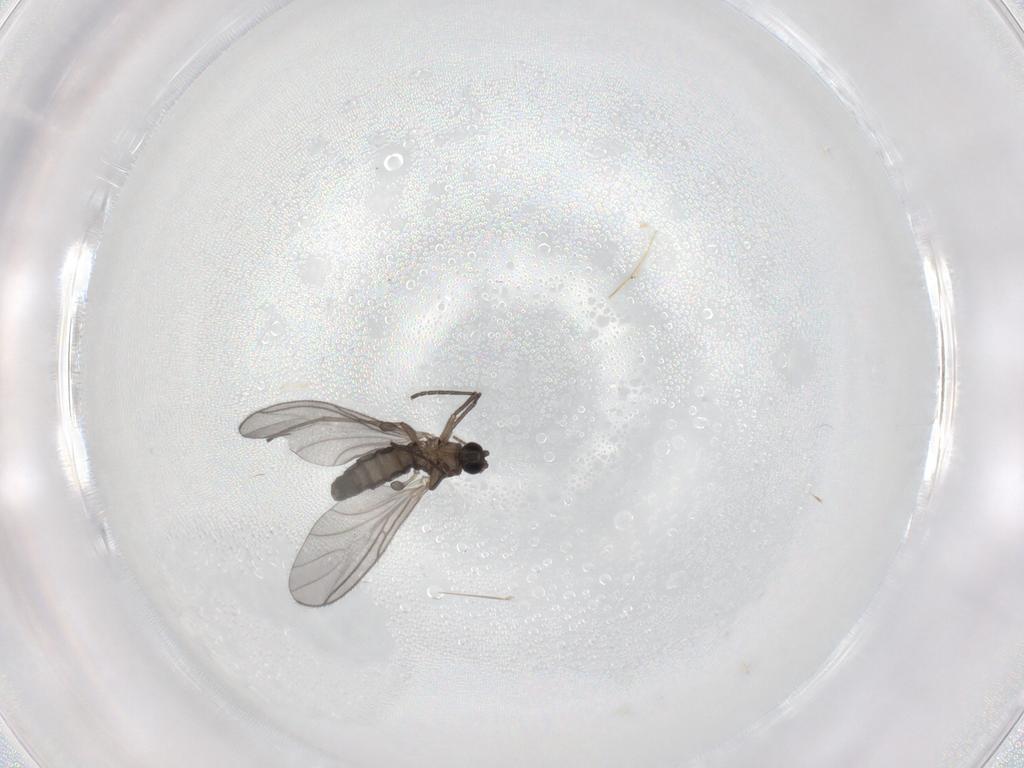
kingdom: Animalia
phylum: Arthropoda
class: Insecta
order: Diptera
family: Sciaridae
